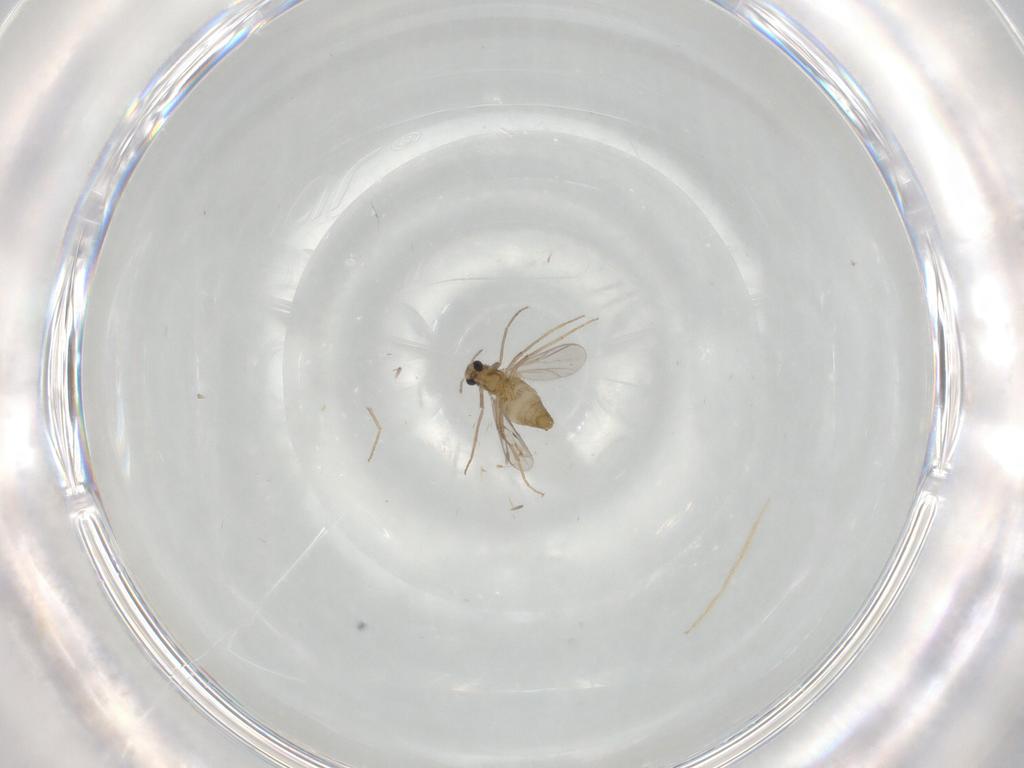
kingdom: Animalia
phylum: Arthropoda
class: Insecta
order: Diptera
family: Chironomidae
